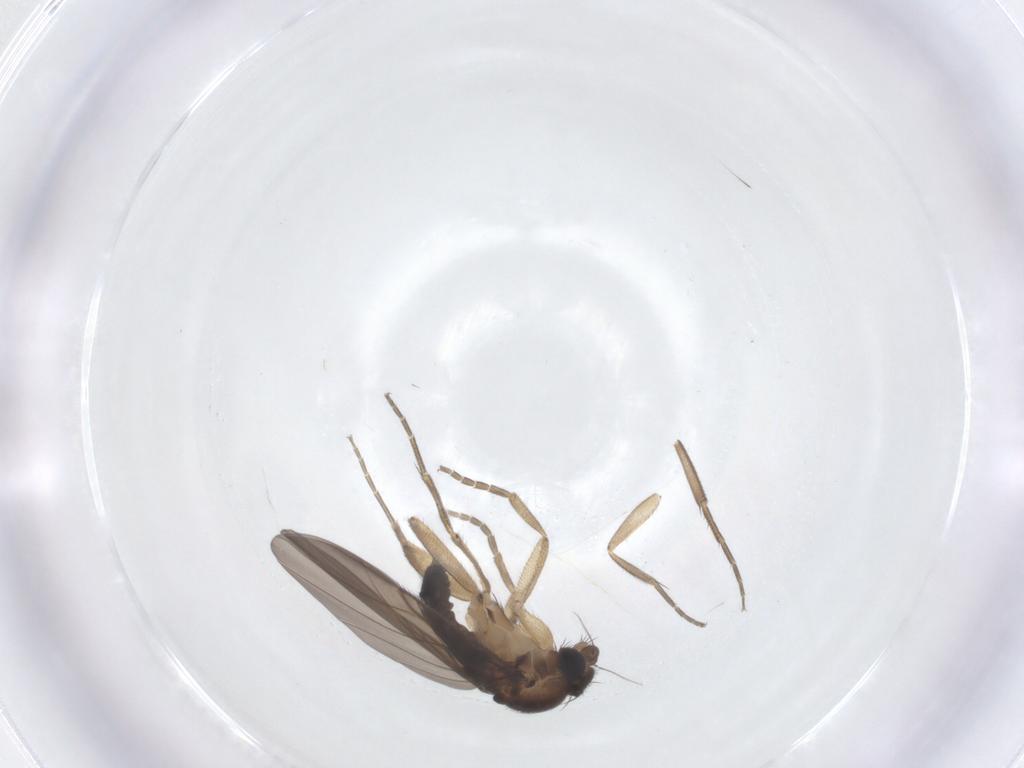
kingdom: Animalia
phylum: Arthropoda
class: Insecta
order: Diptera
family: Phoridae
